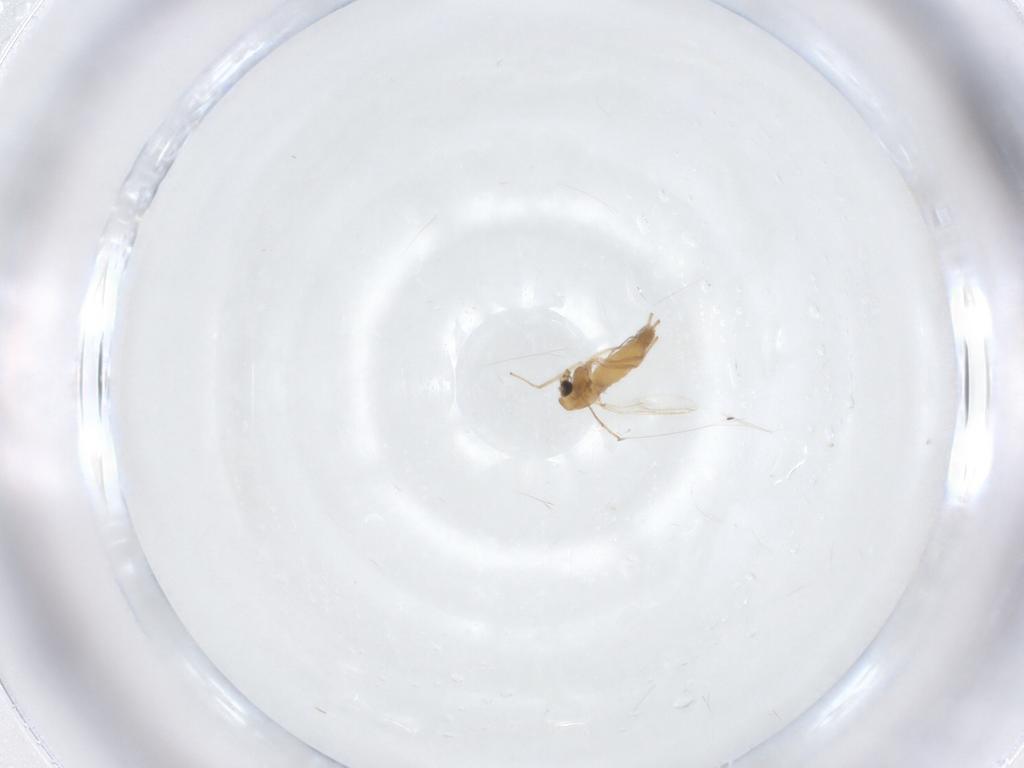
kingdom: Animalia
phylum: Arthropoda
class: Insecta
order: Diptera
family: Chironomidae
